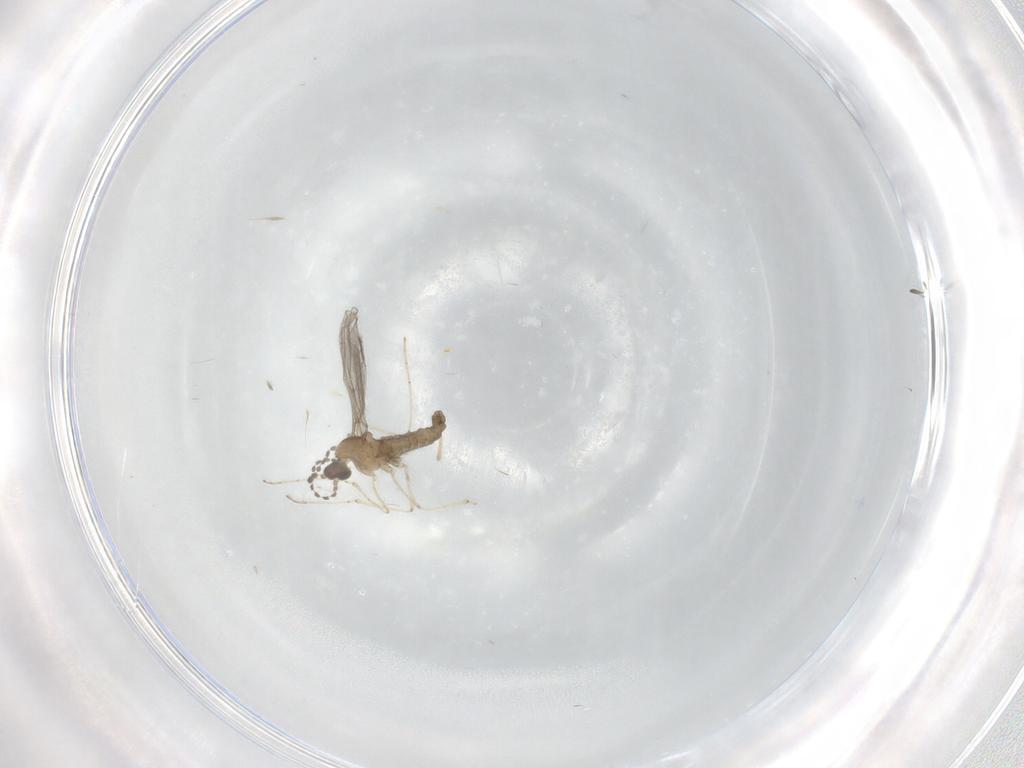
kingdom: Animalia
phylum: Arthropoda
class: Insecta
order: Diptera
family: Cecidomyiidae
